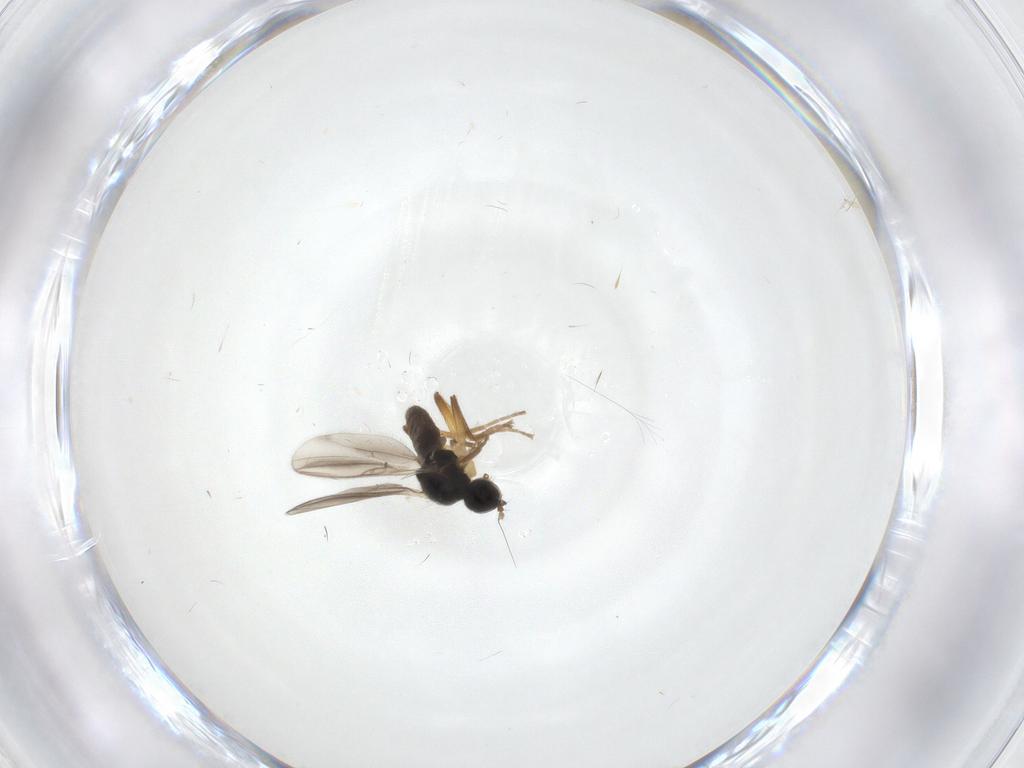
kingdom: Animalia
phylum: Arthropoda
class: Insecta
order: Diptera
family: Hybotidae
